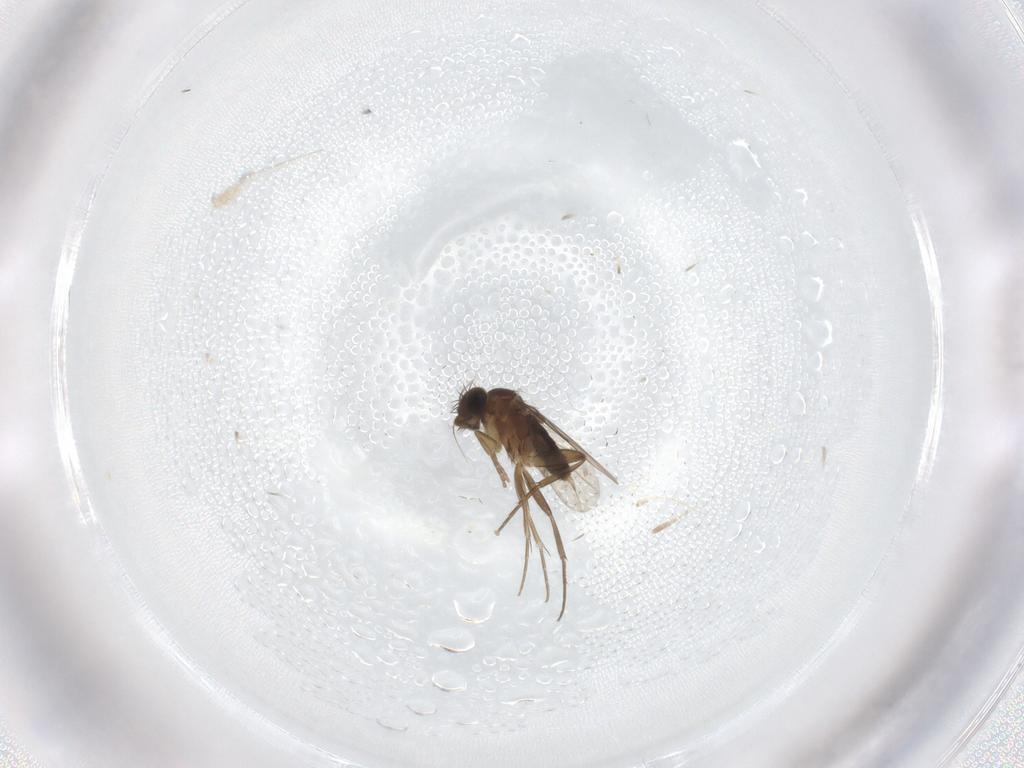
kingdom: Animalia
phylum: Arthropoda
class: Insecta
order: Diptera
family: Phoridae
